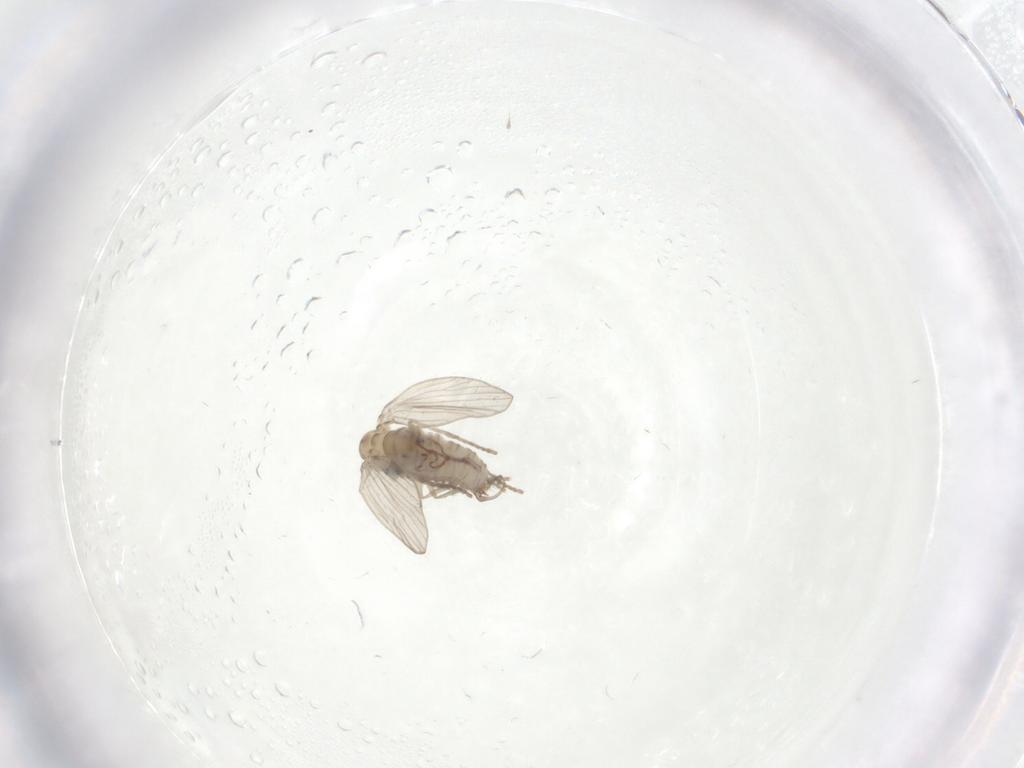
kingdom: Animalia
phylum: Arthropoda
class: Insecta
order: Diptera
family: Psychodidae
